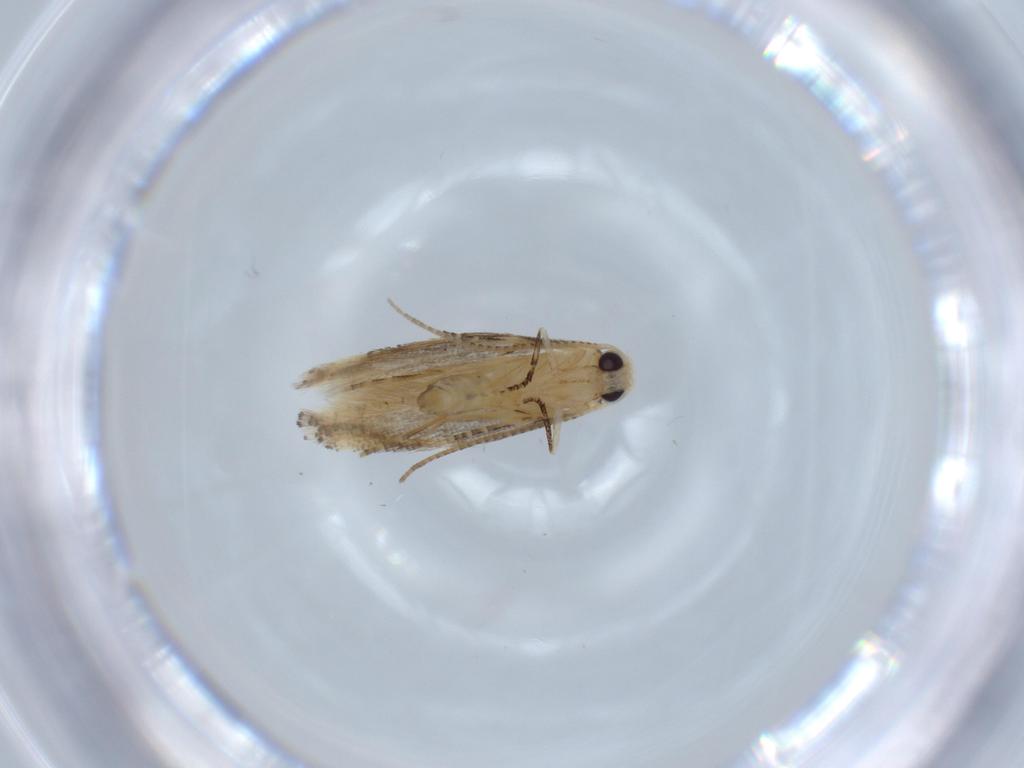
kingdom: Animalia
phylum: Arthropoda
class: Insecta
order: Lepidoptera
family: Bucculatricidae
